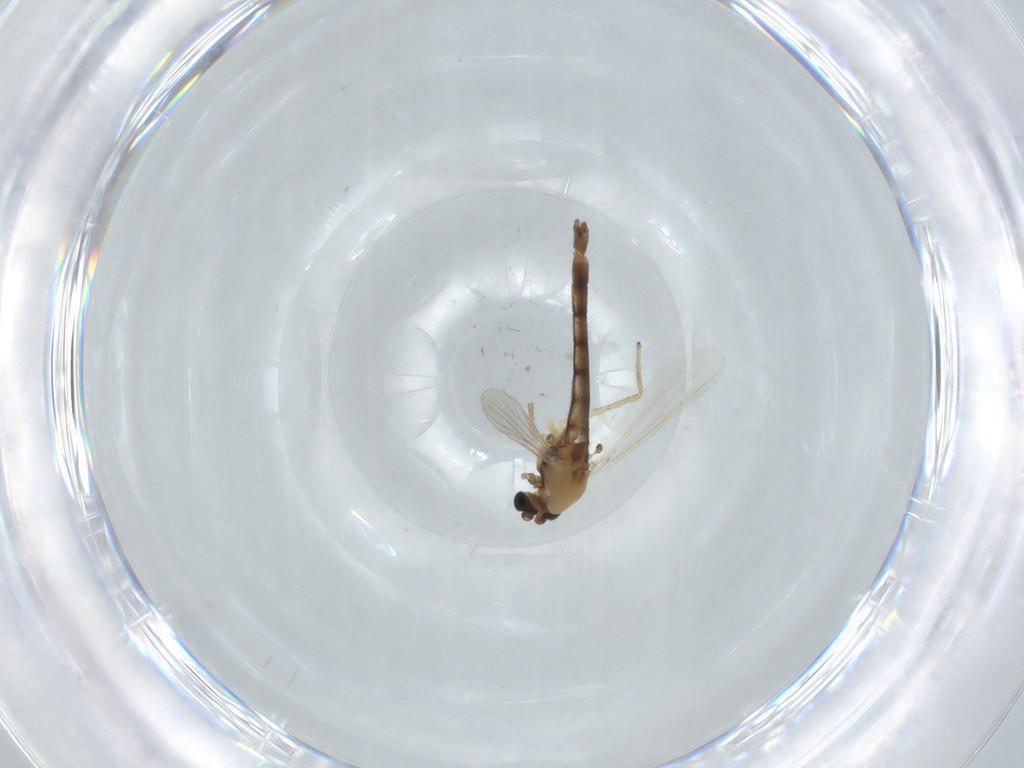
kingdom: Animalia
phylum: Arthropoda
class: Insecta
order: Diptera
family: Chironomidae
